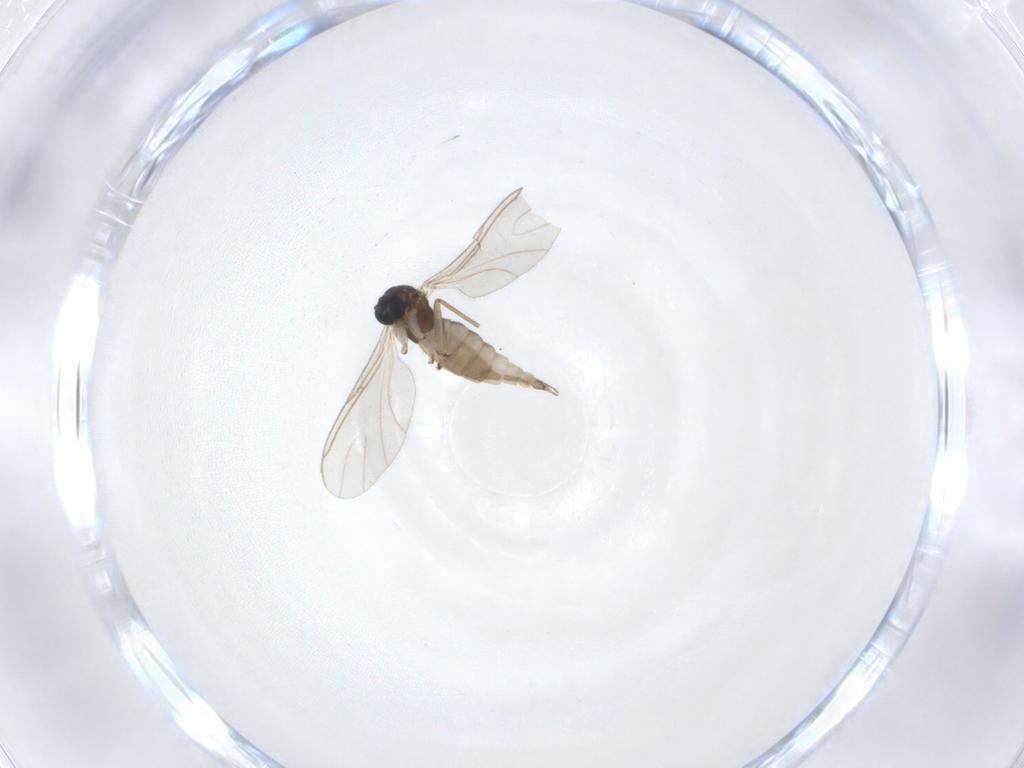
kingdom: Animalia
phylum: Arthropoda
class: Insecta
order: Diptera
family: Sciaridae
